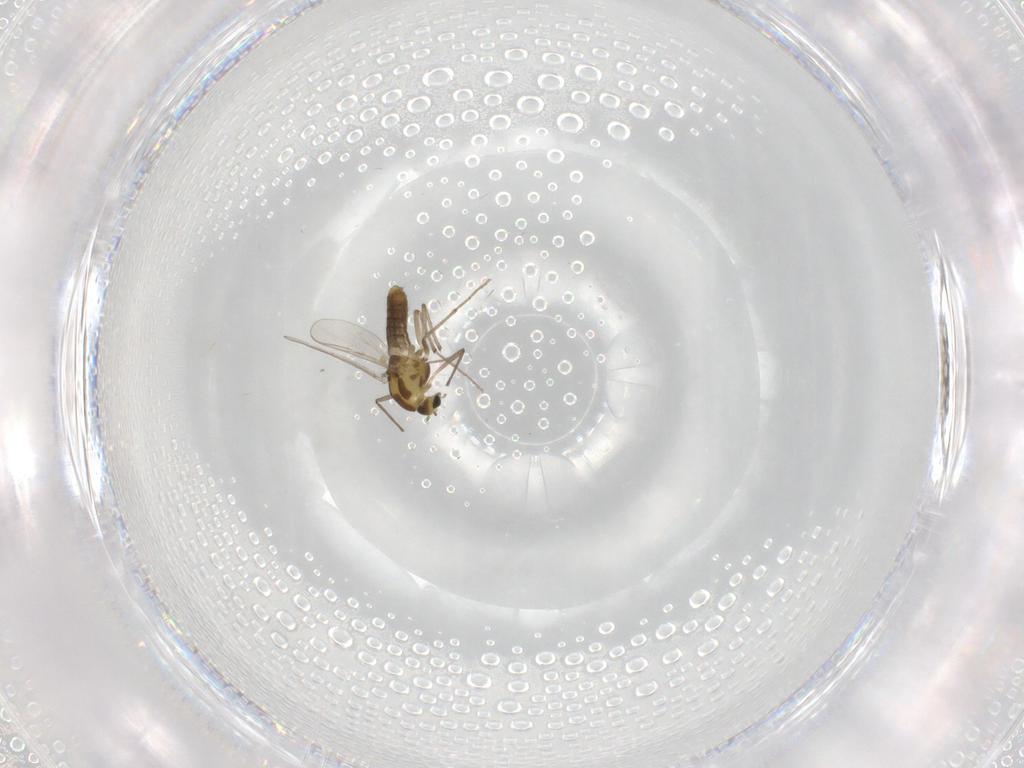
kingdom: Animalia
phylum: Arthropoda
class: Insecta
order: Diptera
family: Chironomidae
